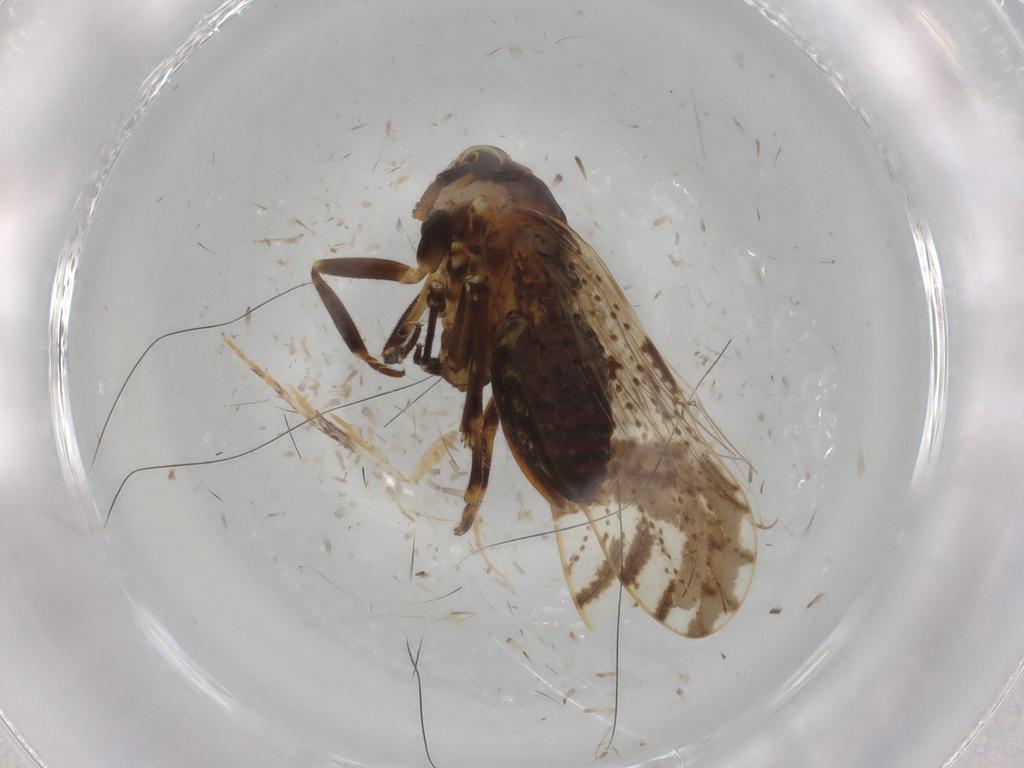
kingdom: Animalia
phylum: Arthropoda
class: Insecta
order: Hemiptera
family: Delphacidae
